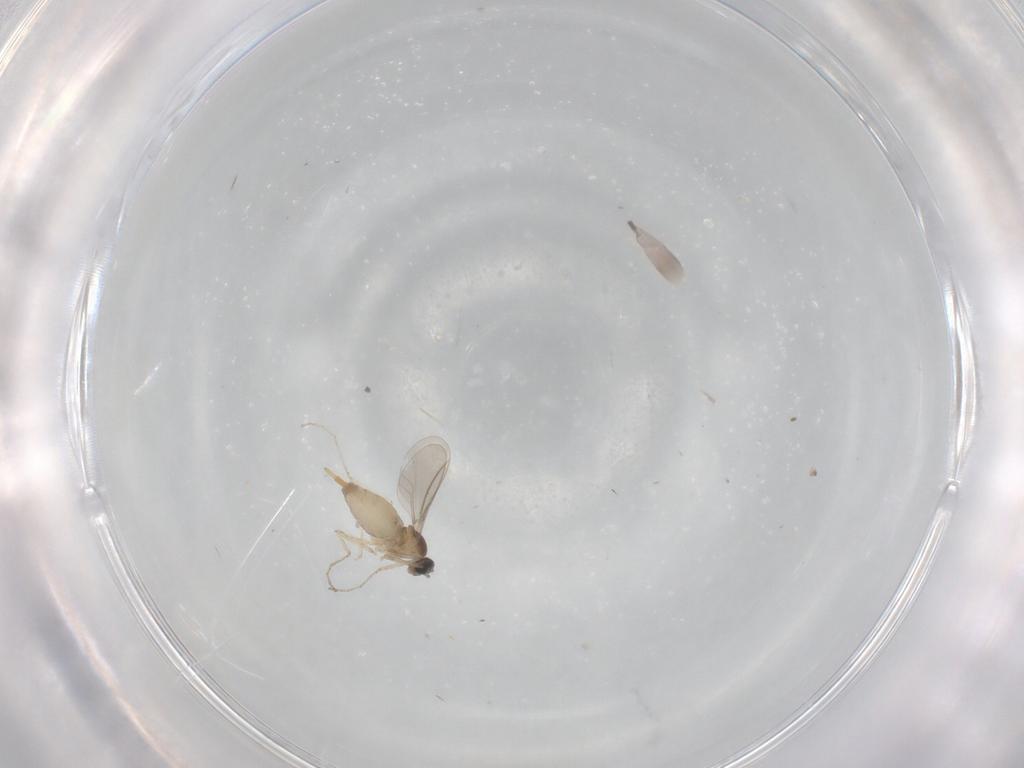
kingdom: Animalia
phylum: Arthropoda
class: Insecta
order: Diptera
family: Cecidomyiidae
